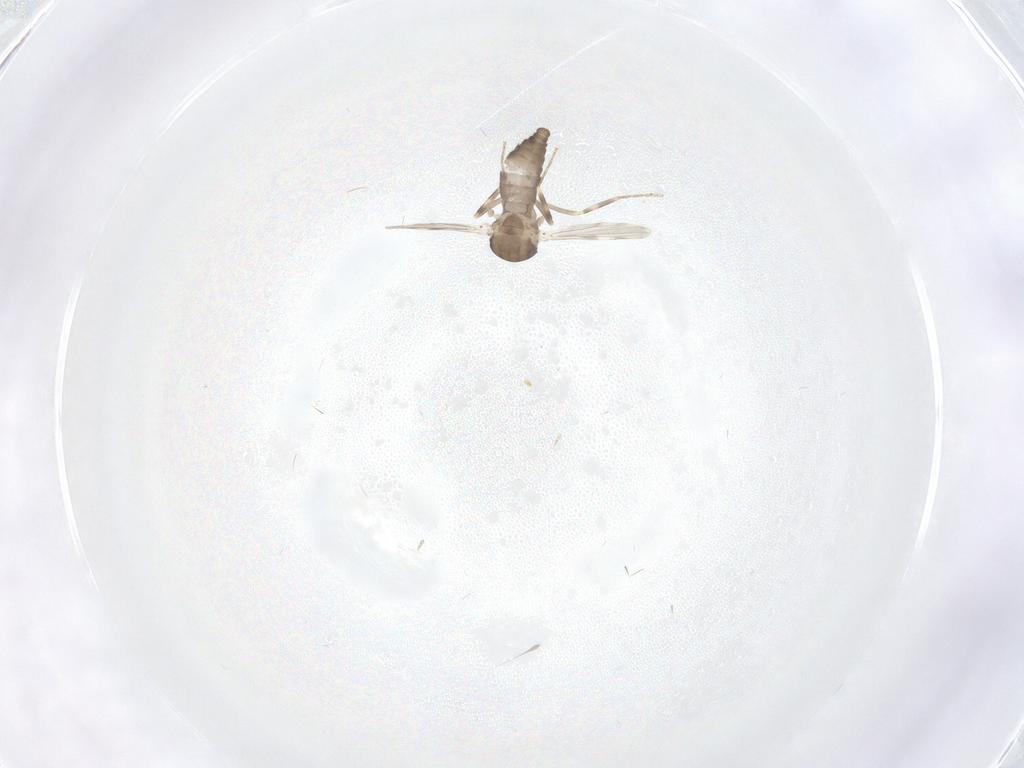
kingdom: Animalia
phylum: Arthropoda
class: Insecta
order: Diptera
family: Ceratopogonidae
